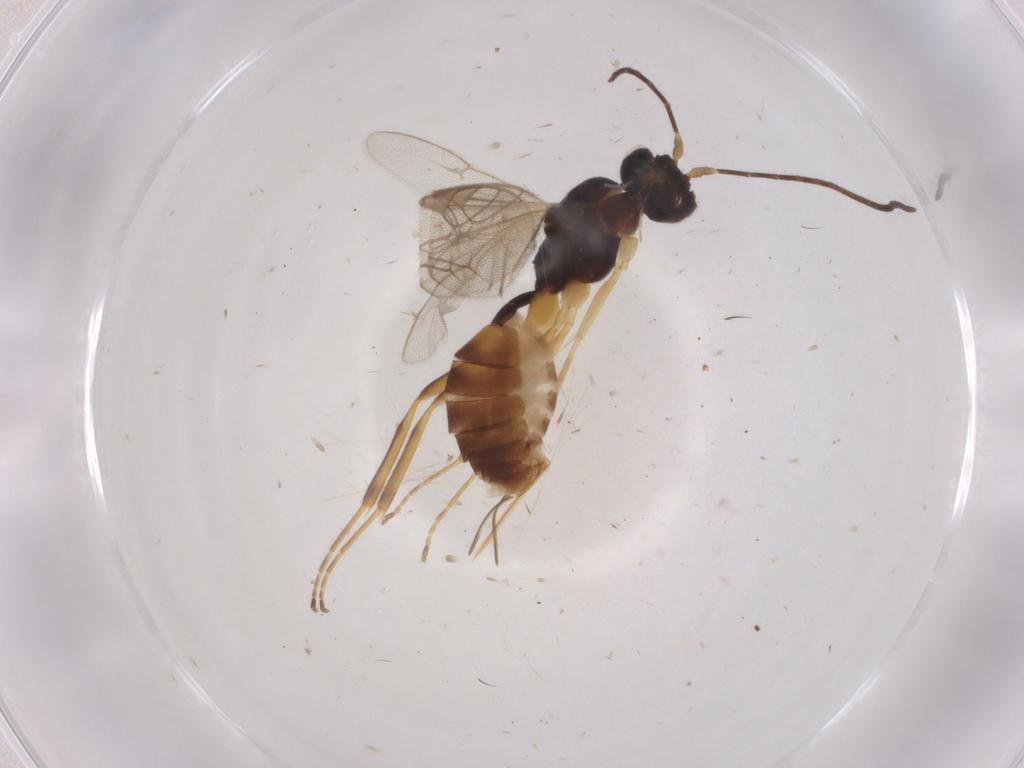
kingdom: Animalia
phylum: Arthropoda
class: Insecta
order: Hymenoptera
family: Ichneumonidae
